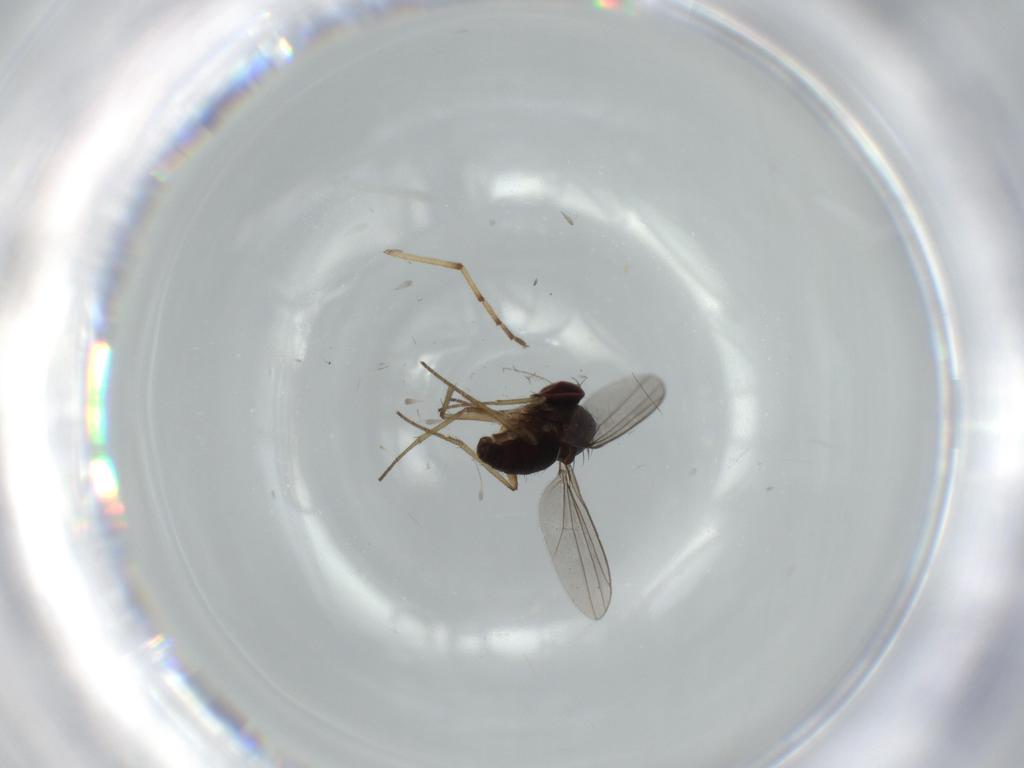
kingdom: Animalia
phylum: Arthropoda
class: Insecta
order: Diptera
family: Dolichopodidae
